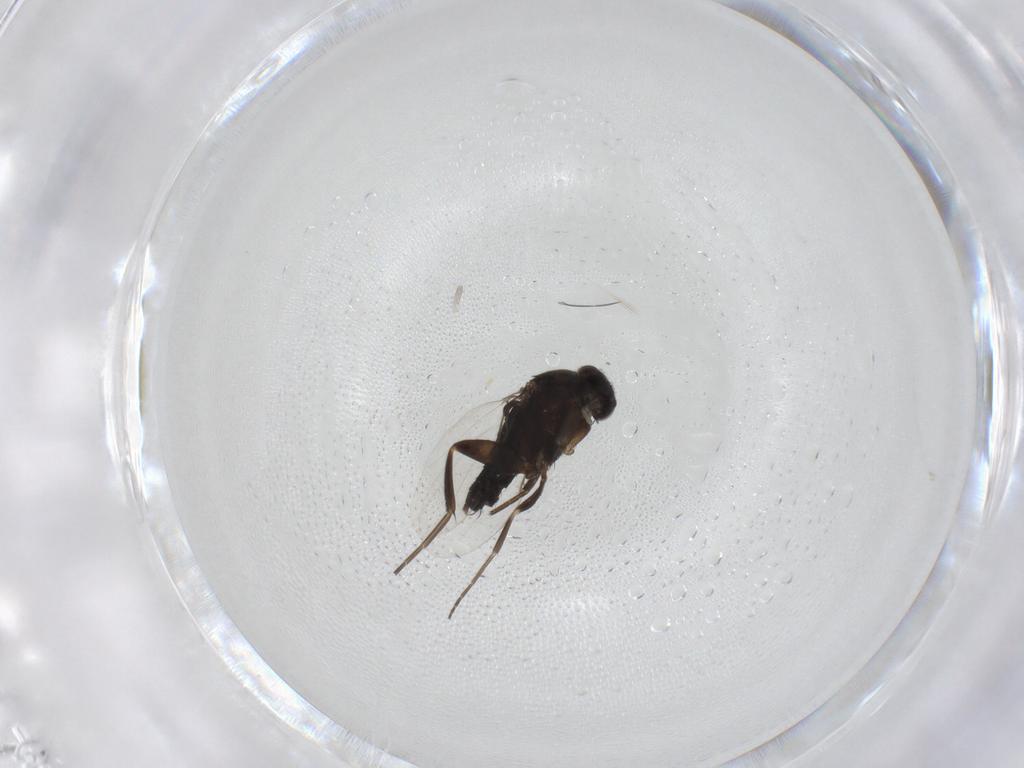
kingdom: Animalia
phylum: Arthropoda
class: Insecta
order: Diptera
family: Phoridae
